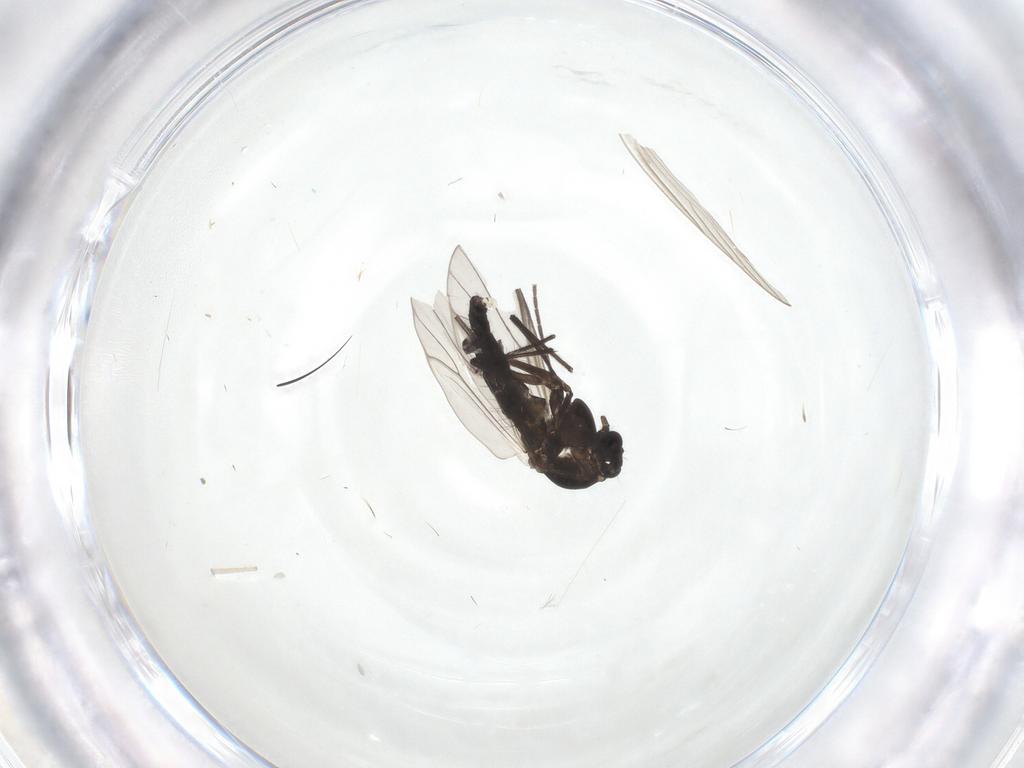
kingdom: Animalia
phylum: Arthropoda
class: Insecta
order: Diptera
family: Chironomidae
